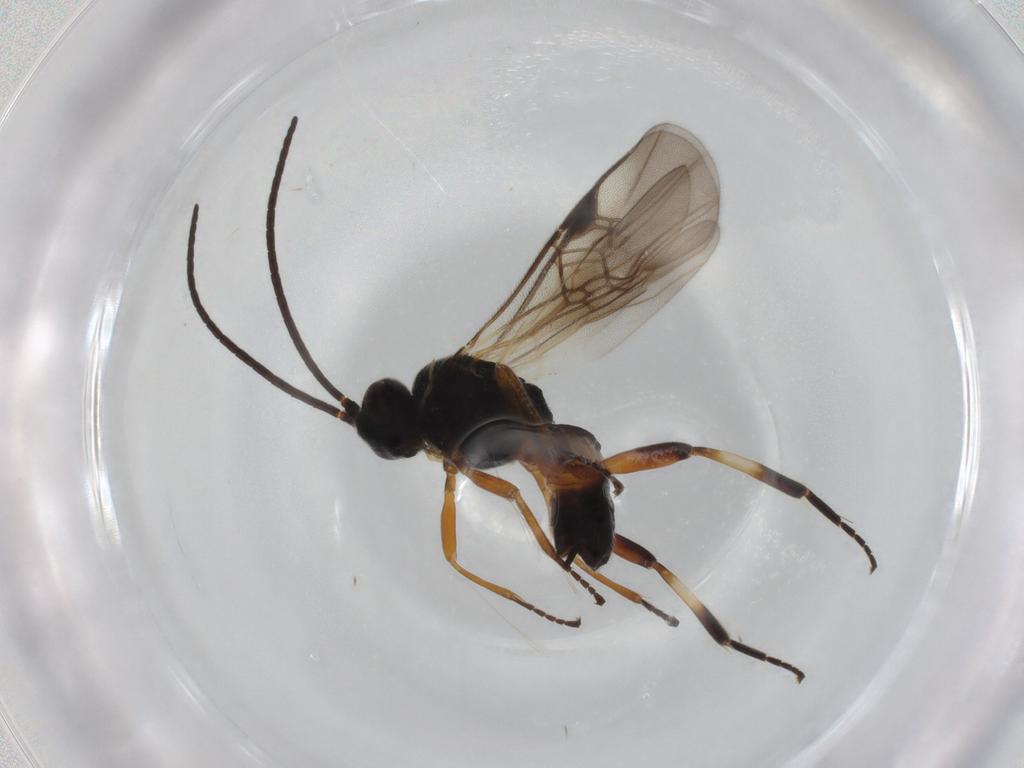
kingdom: Animalia
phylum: Arthropoda
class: Insecta
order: Hymenoptera
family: Braconidae
